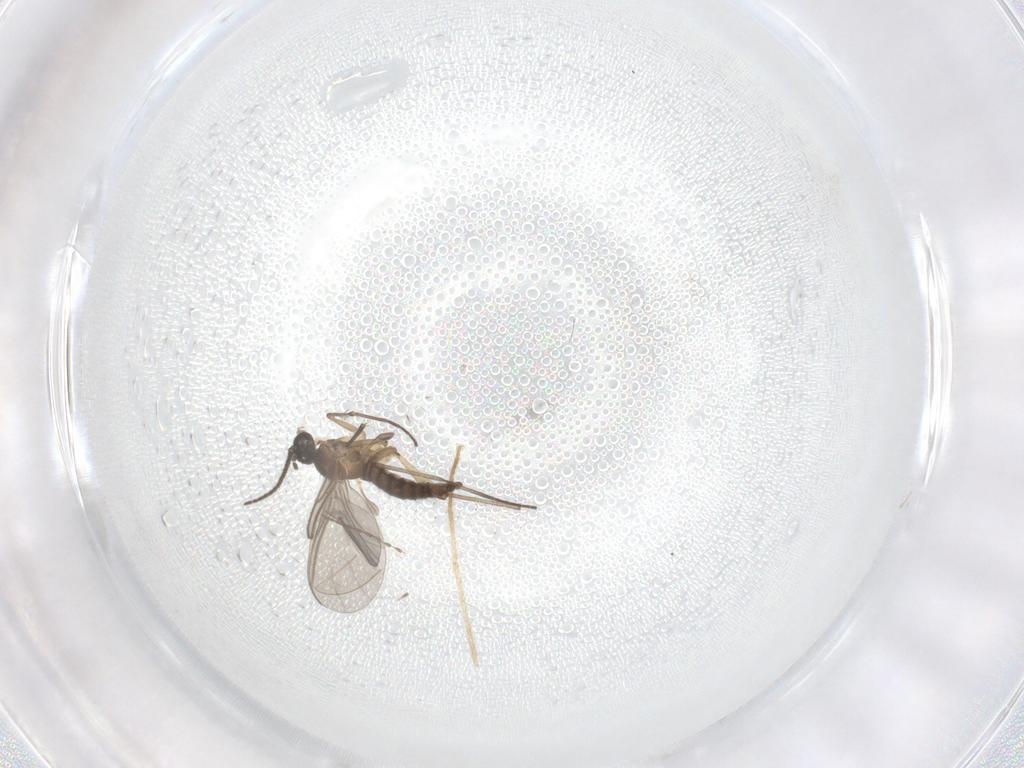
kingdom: Animalia
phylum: Arthropoda
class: Insecta
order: Diptera
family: Sciaridae
